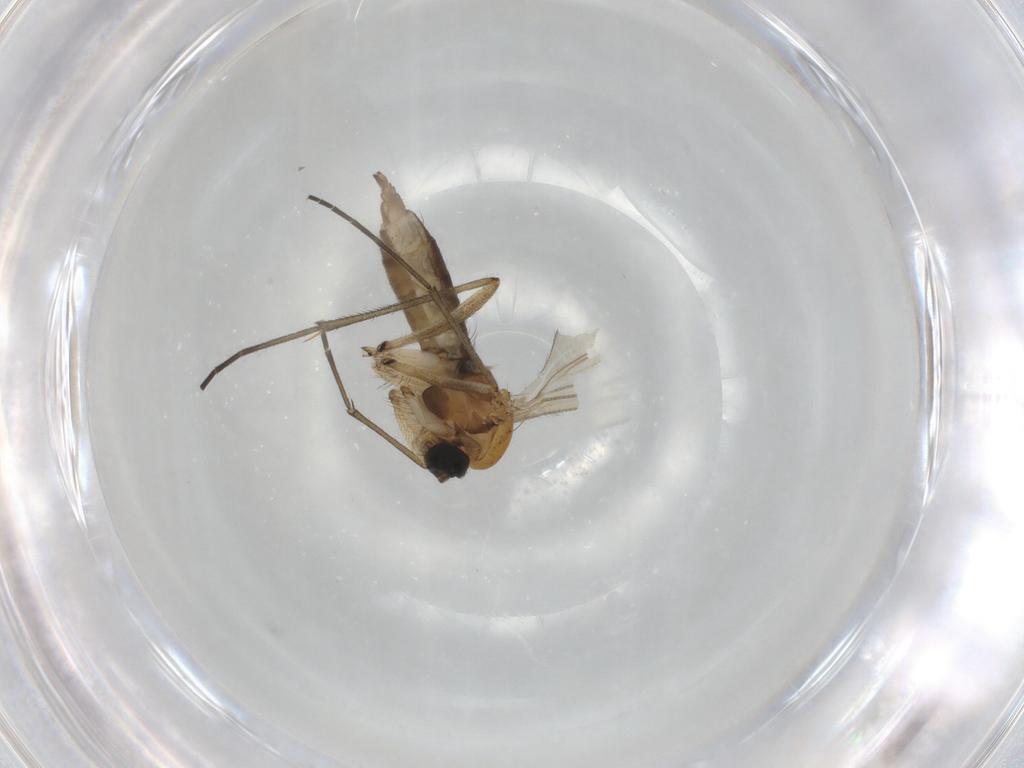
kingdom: Animalia
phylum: Arthropoda
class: Insecta
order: Diptera
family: Sciaridae
